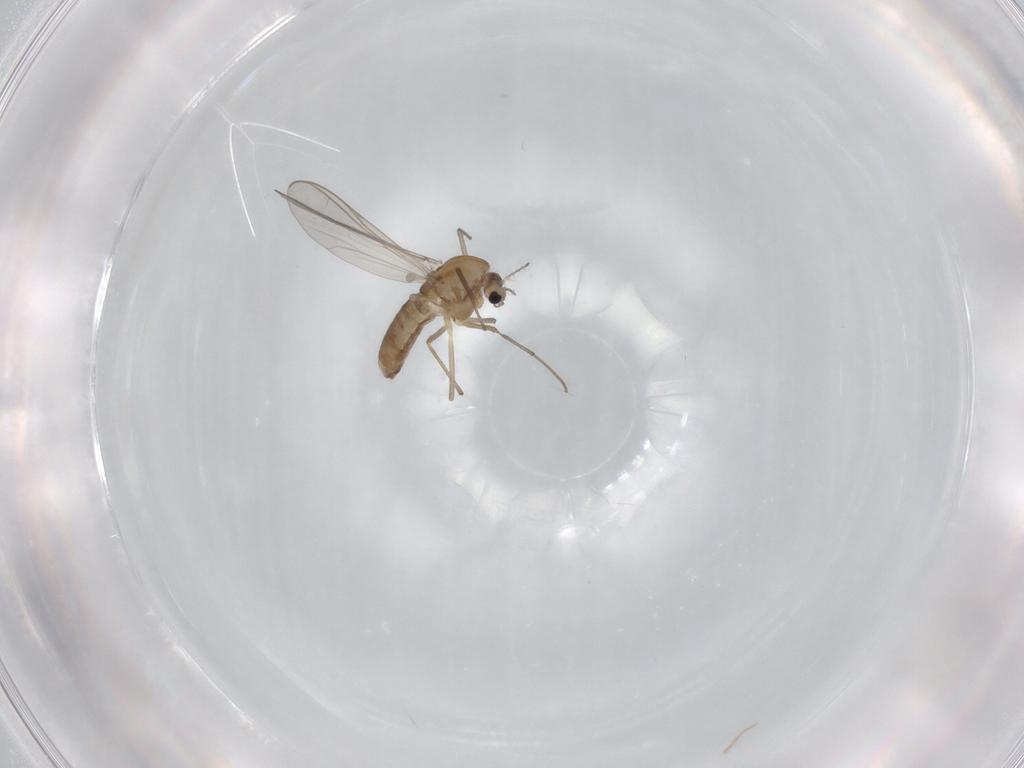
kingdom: Animalia
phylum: Arthropoda
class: Insecta
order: Diptera
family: Chironomidae
